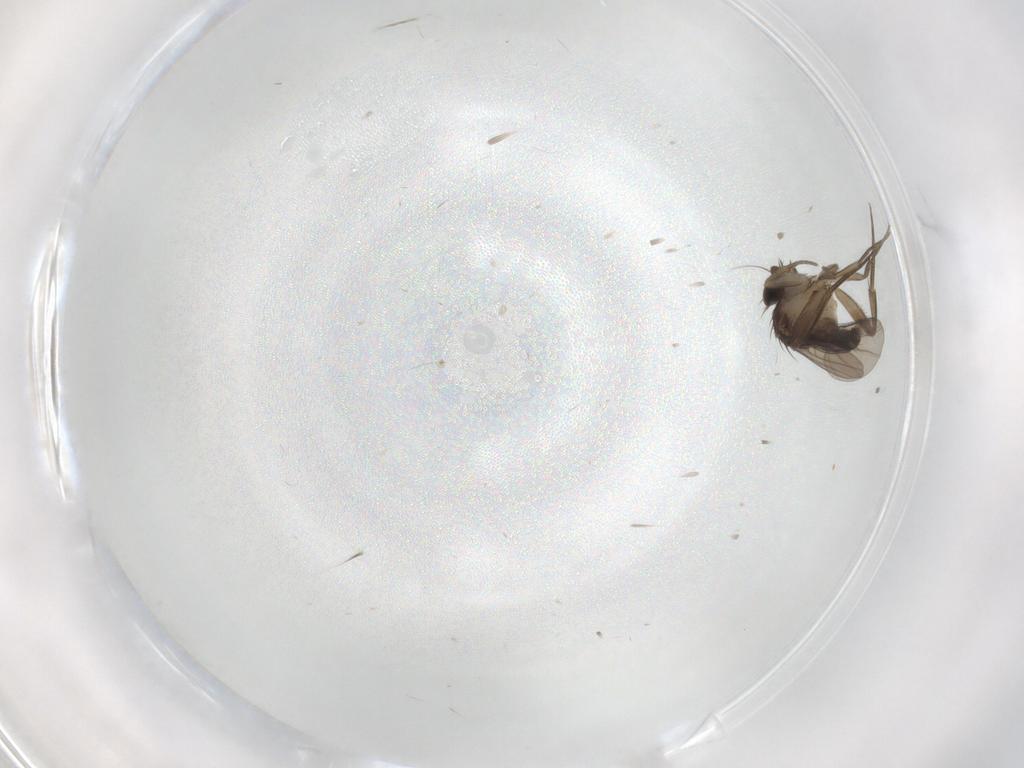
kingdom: Animalia
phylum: Arthropoda
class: Insecta
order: Diptera
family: Phoridae
